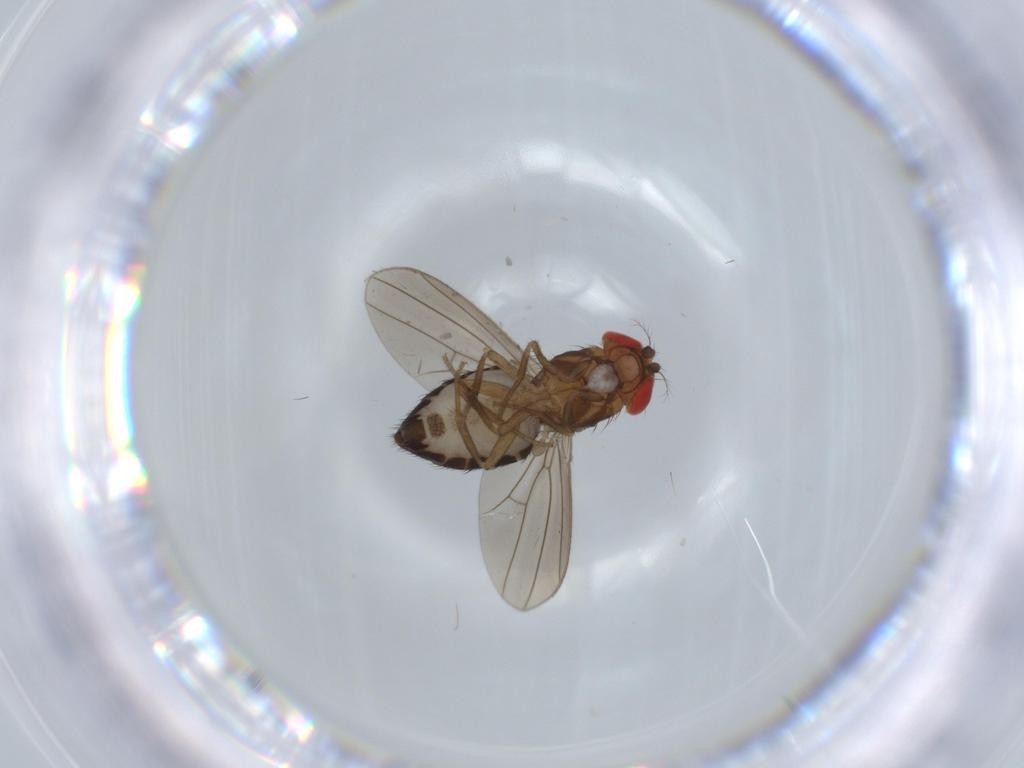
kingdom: Animalia
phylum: Arthropoda
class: Insecta
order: Diptera
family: Drosophilidae
